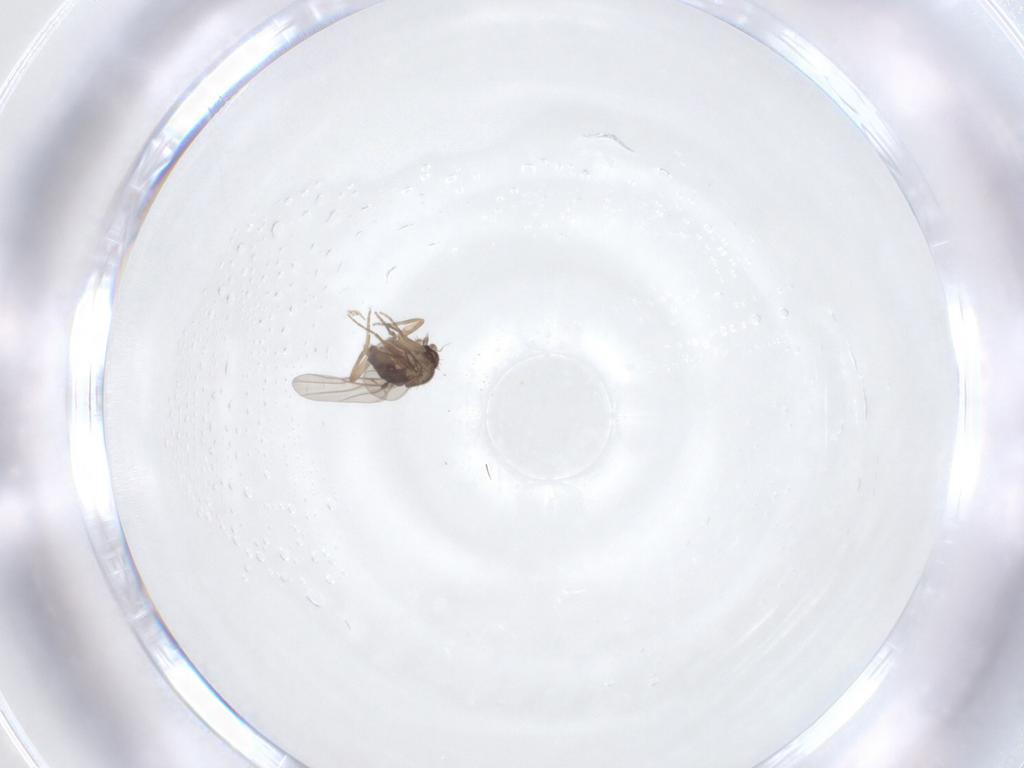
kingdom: Animalia
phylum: Arthropoda
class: Insecta
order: Diptera
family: Phoridae
